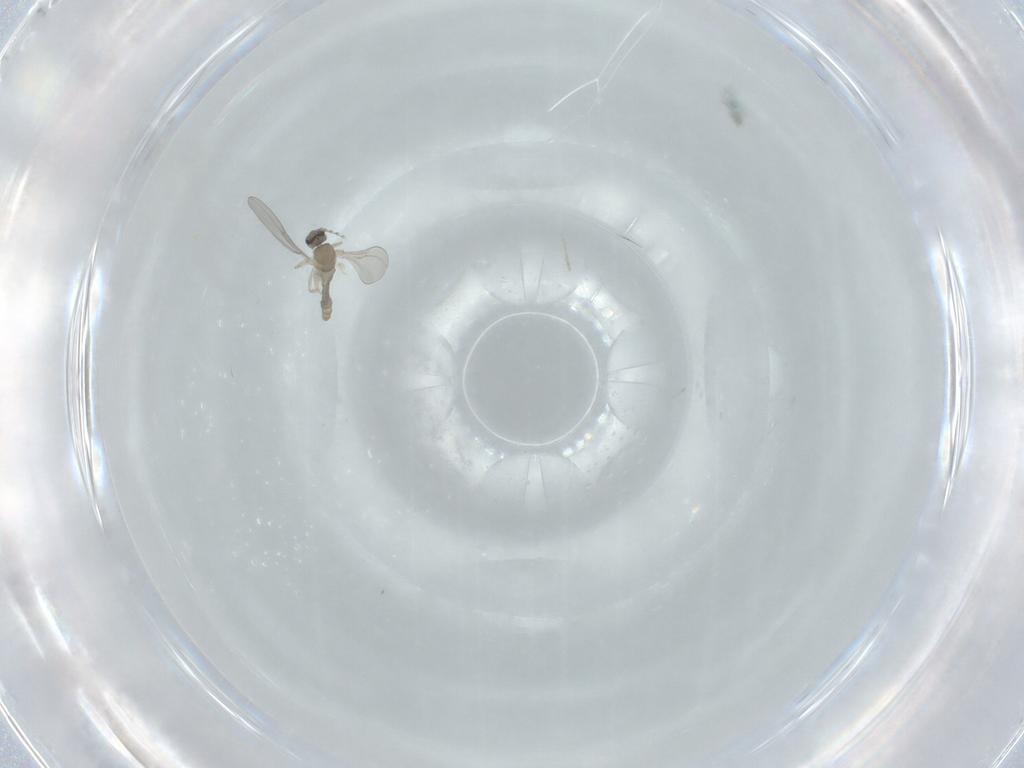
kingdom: Animalia
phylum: Arthropoda
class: Insecta
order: Diptera
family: Cecidomyiidae
